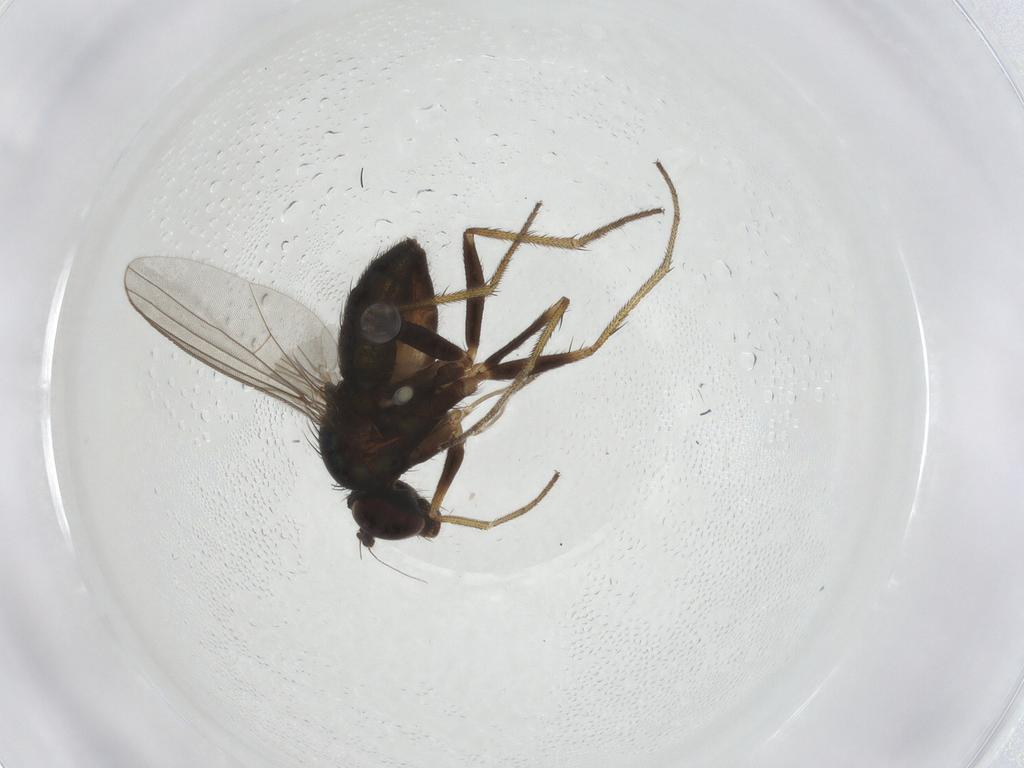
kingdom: Animalia
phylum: Arthropoda
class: Insecta
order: Diptera
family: Dolichopodidae
